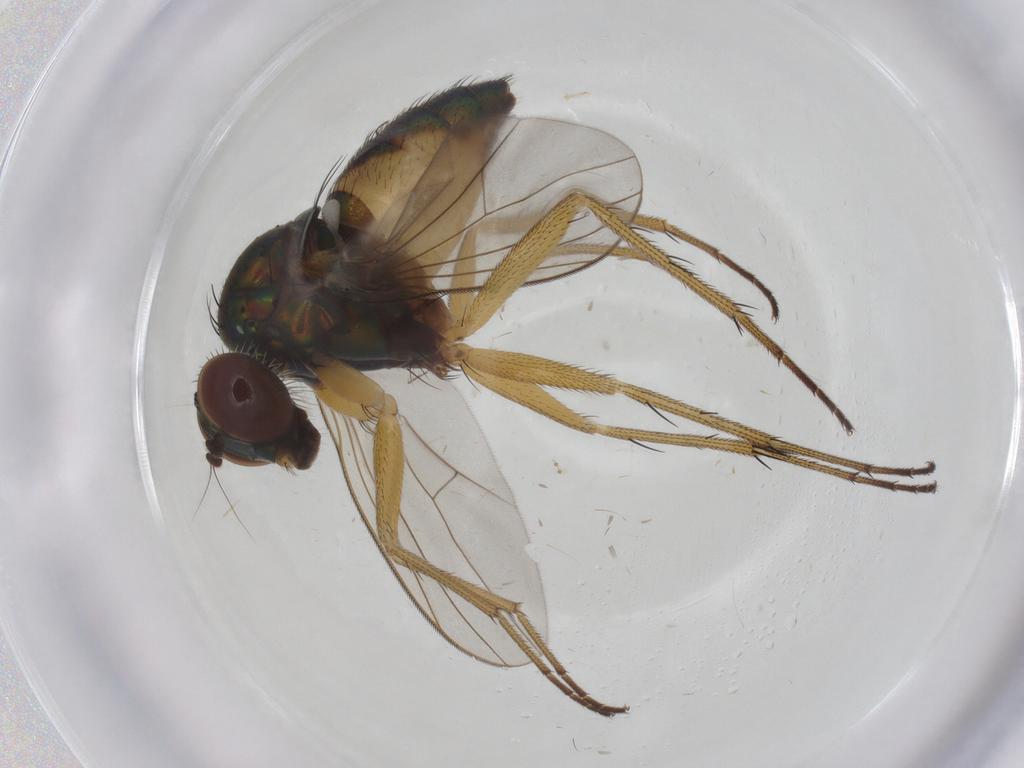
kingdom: Animalia
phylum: Arthropoda
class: Insecta
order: Diptera
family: Dolichopodidae
